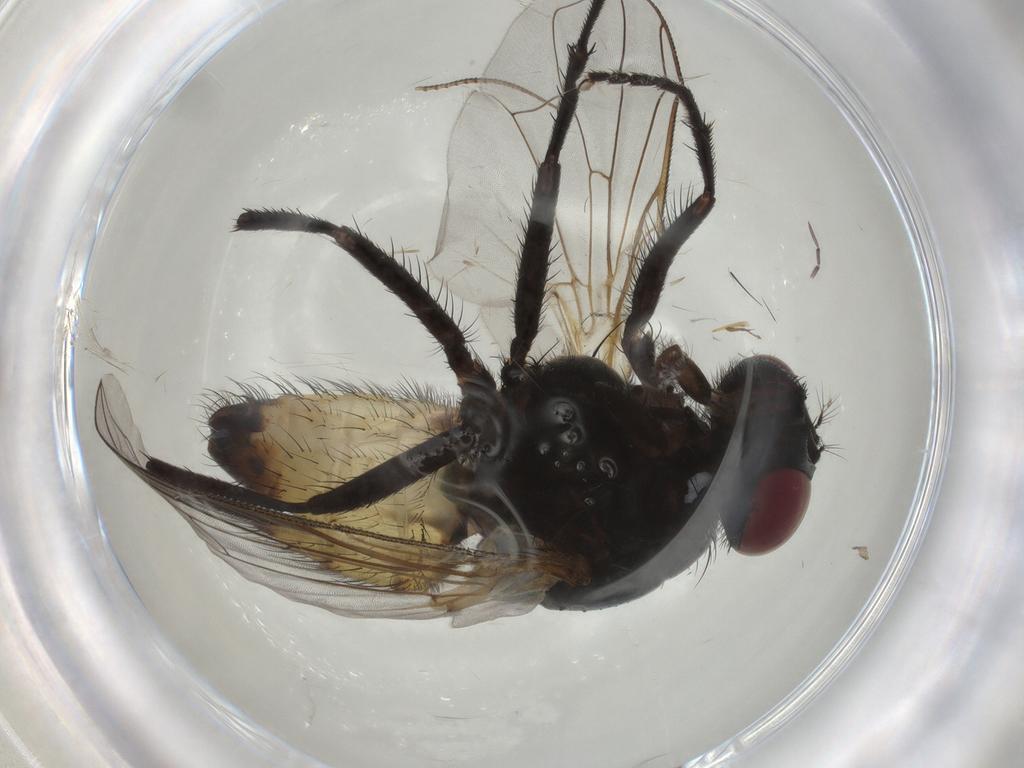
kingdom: Animalia
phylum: Arthropoda
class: Insecta
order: Diptera
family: Muscidae
